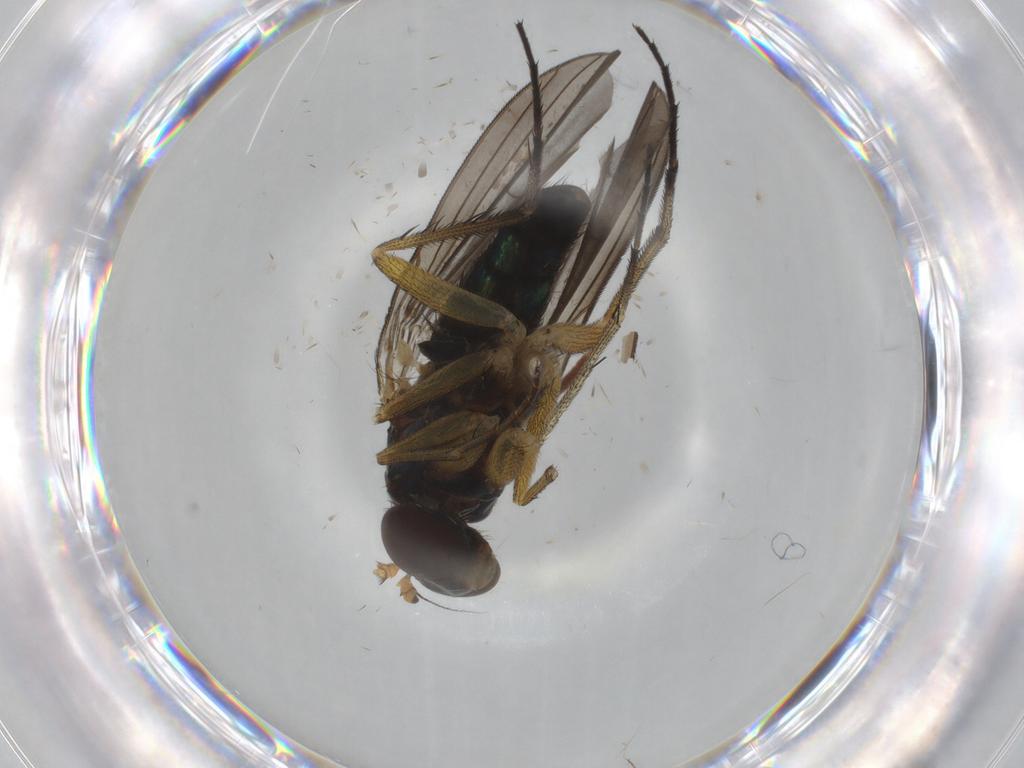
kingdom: Animalia
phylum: Arthropoda
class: Insecta
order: Diptera
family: Dolichopodidae
